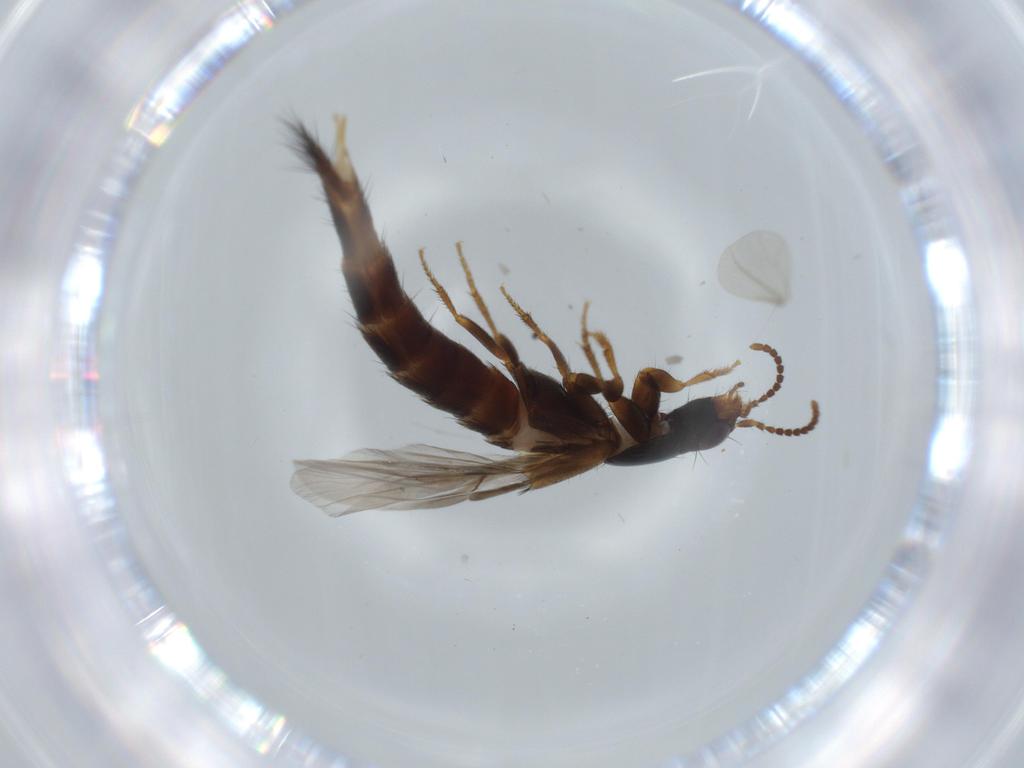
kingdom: Animalia
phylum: Arthropoda
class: Insecta
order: Coleoptera
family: Staphylinidae
